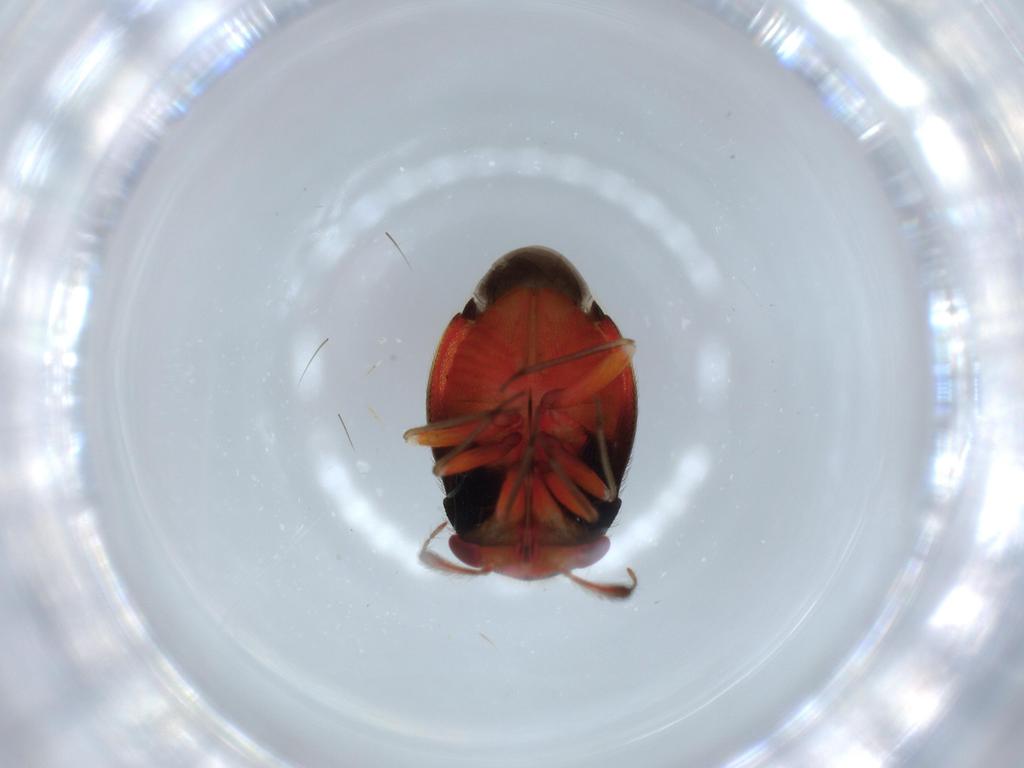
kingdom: Animalia
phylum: Arthropoda
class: Insecta
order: Hemiptera
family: Miridae
